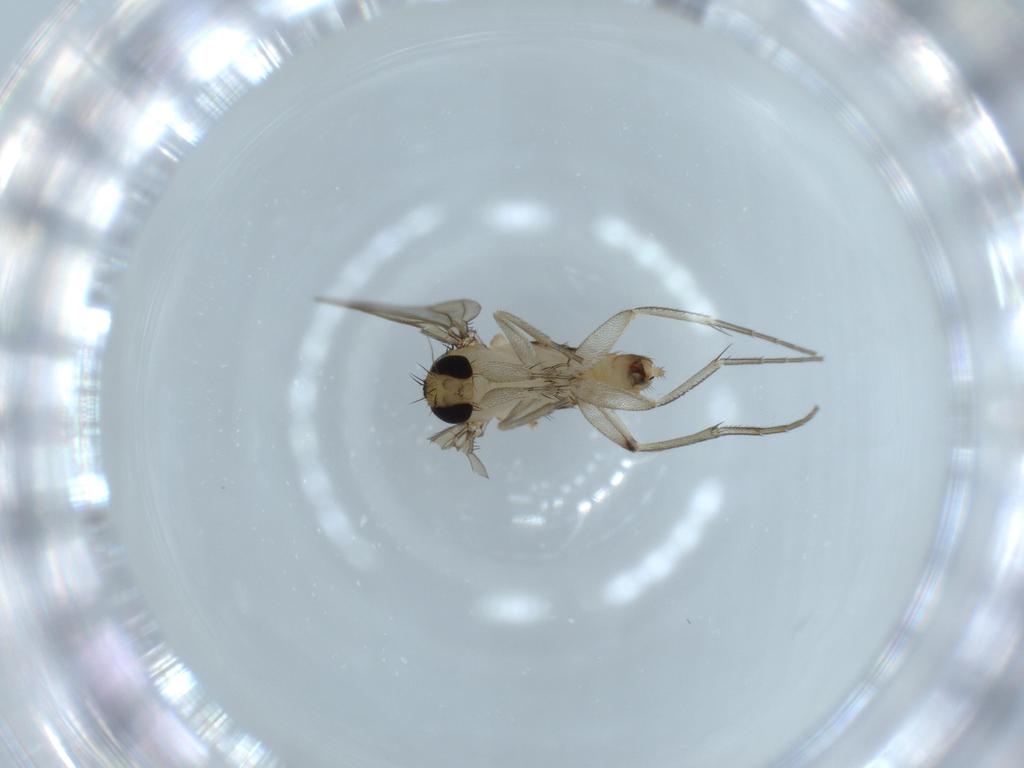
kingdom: Animalia
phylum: Arthropoda
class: Insecta
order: Diptera
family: Phoridae
